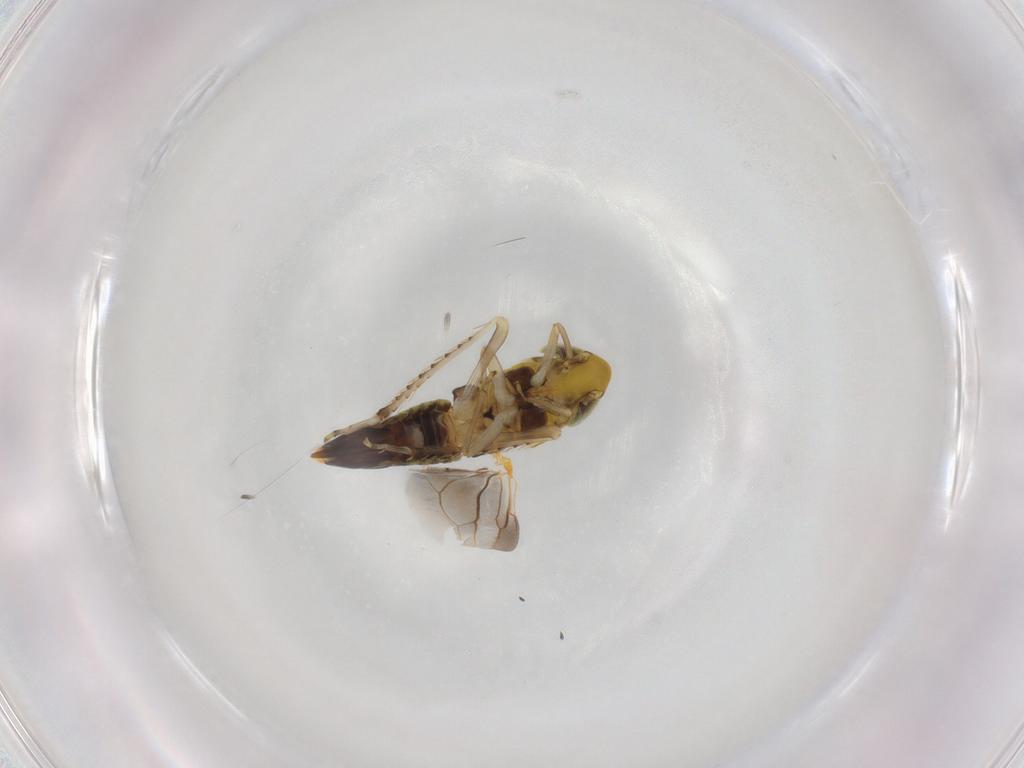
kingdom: Animalia
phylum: Arthropoda
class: Insecta
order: Hemiptera
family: Cicadellidae
